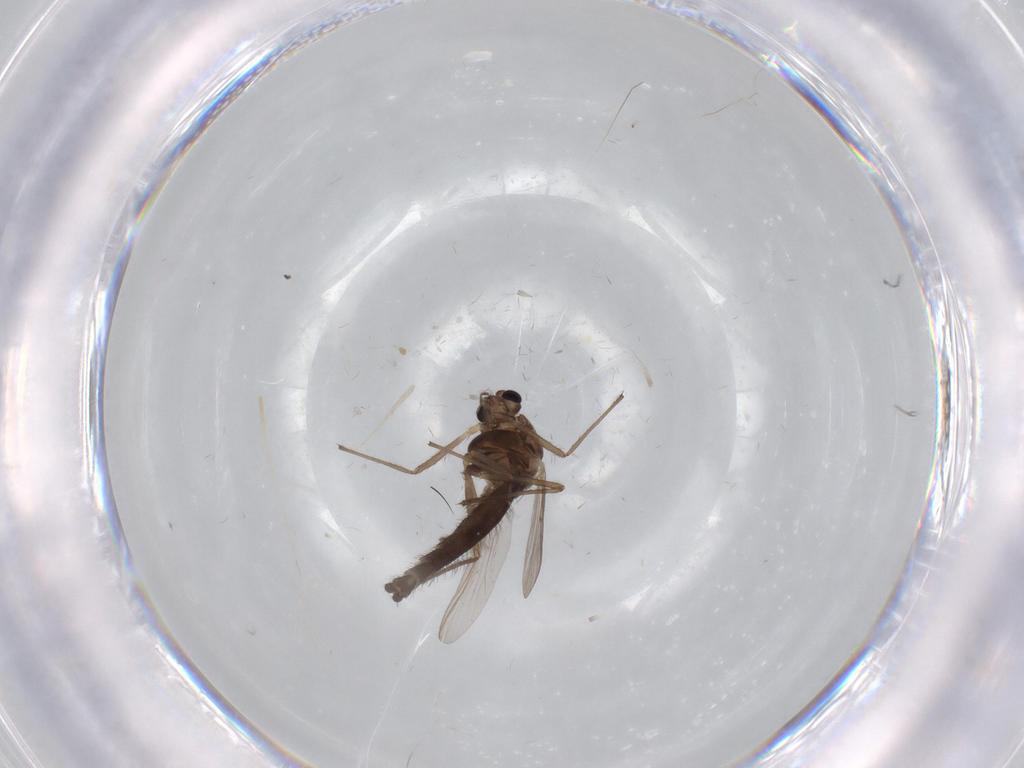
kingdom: Animalia
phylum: Arthropoda
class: Insecta
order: Diptera
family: Chironomidae
